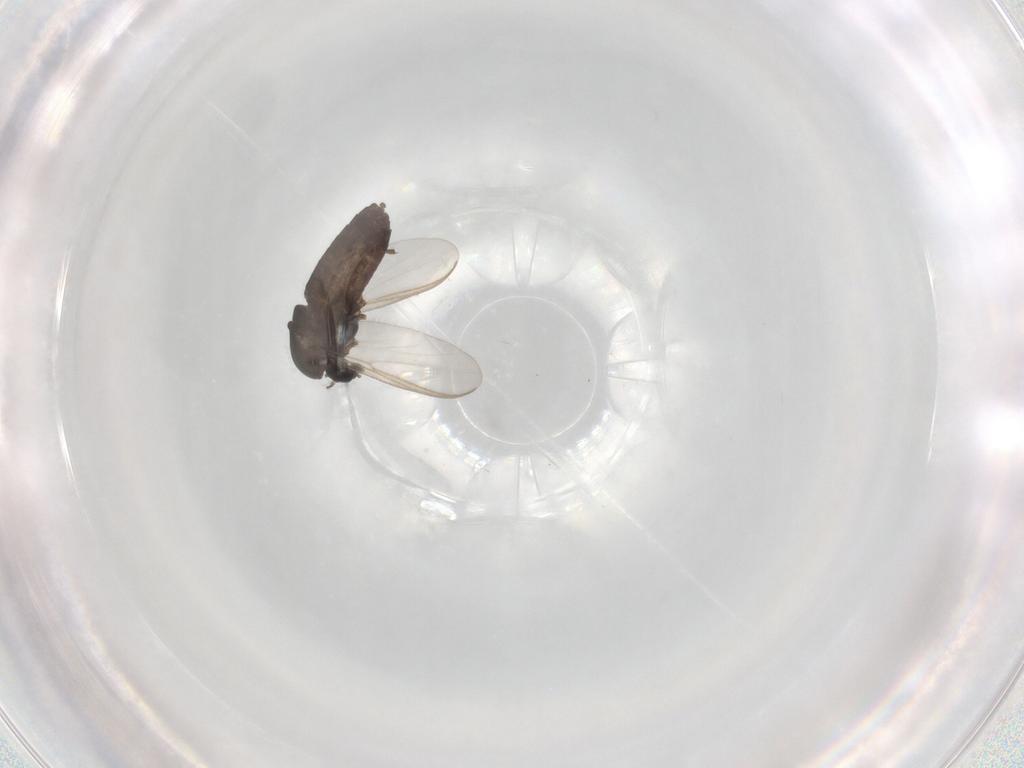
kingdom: Animalia
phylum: Arthropoda
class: Insecta
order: Diptera
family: Chironomidae
